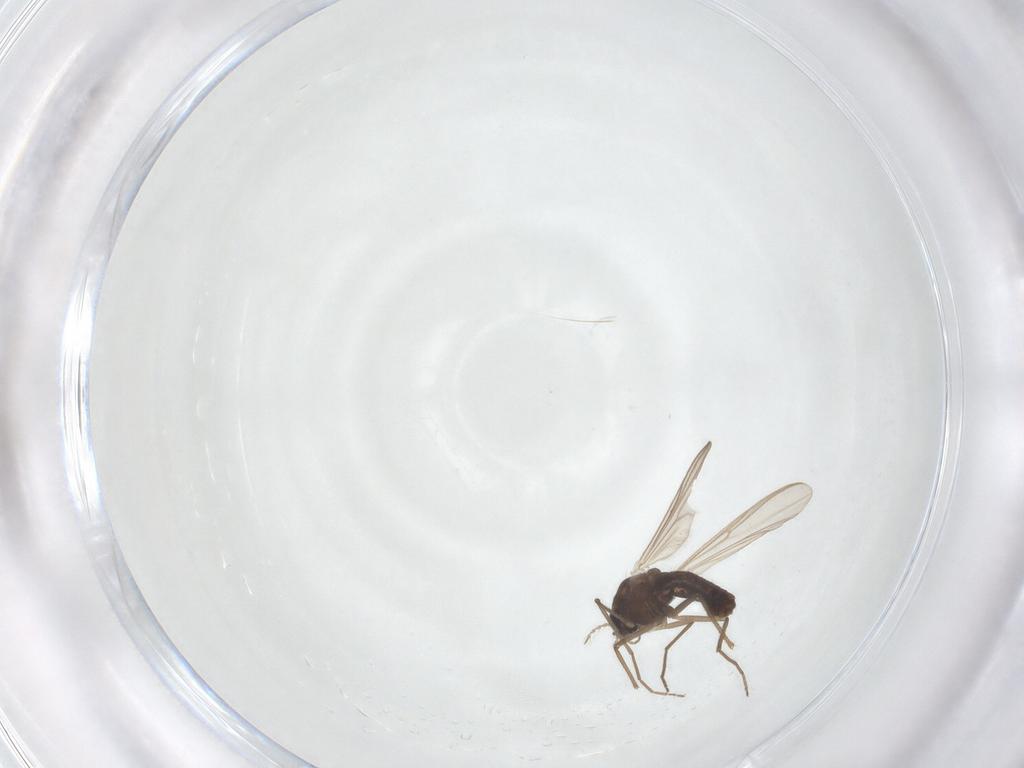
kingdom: Animalia
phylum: Arthropoda
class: Insecta
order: Diptera
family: Chironomidae
